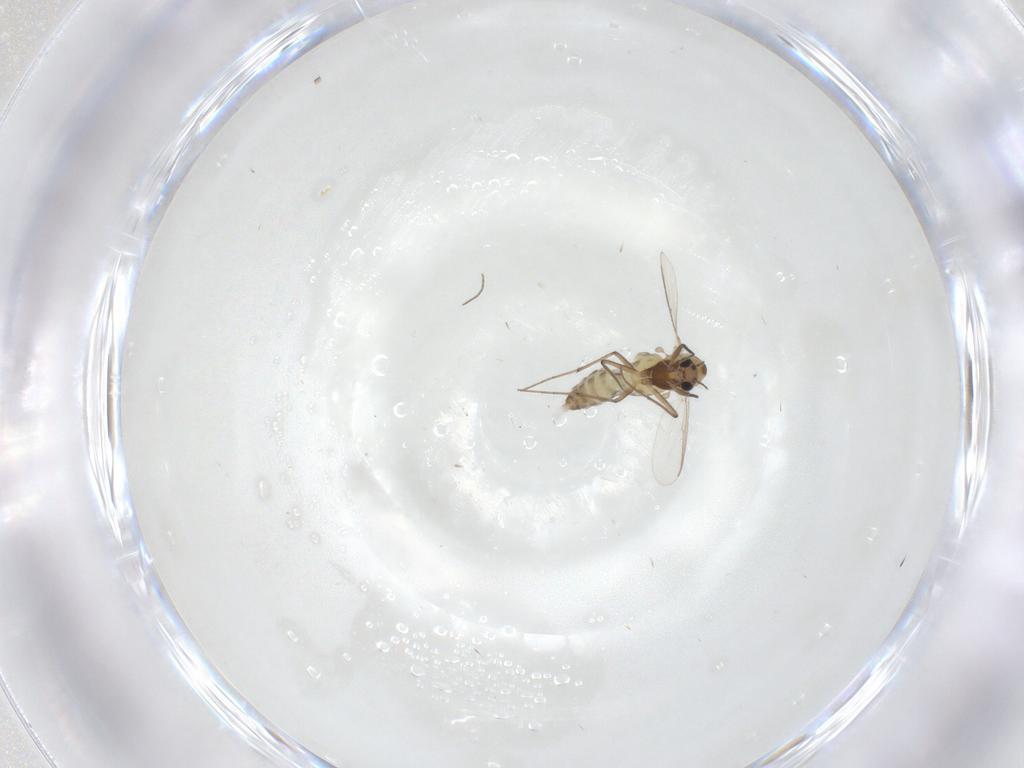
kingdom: Animalia
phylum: Arthropoda
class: Insecta
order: Diptera
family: Chironomidae
